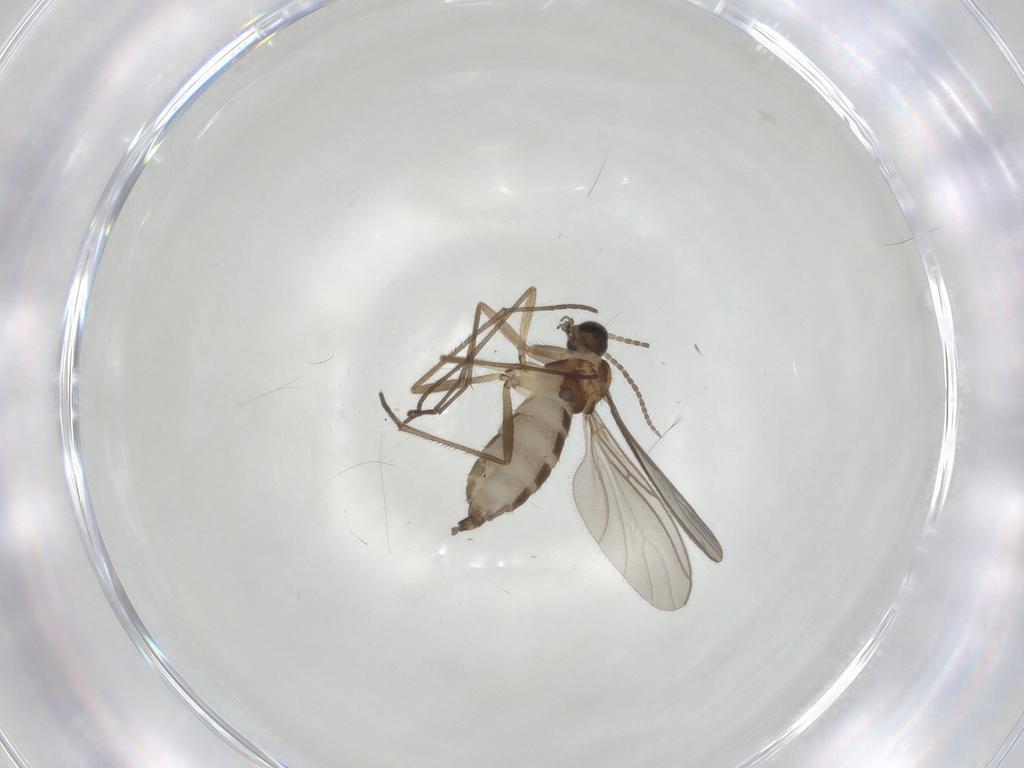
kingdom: Animalia
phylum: Arthropoda
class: Insecta
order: Diptera
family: Sciaridae
